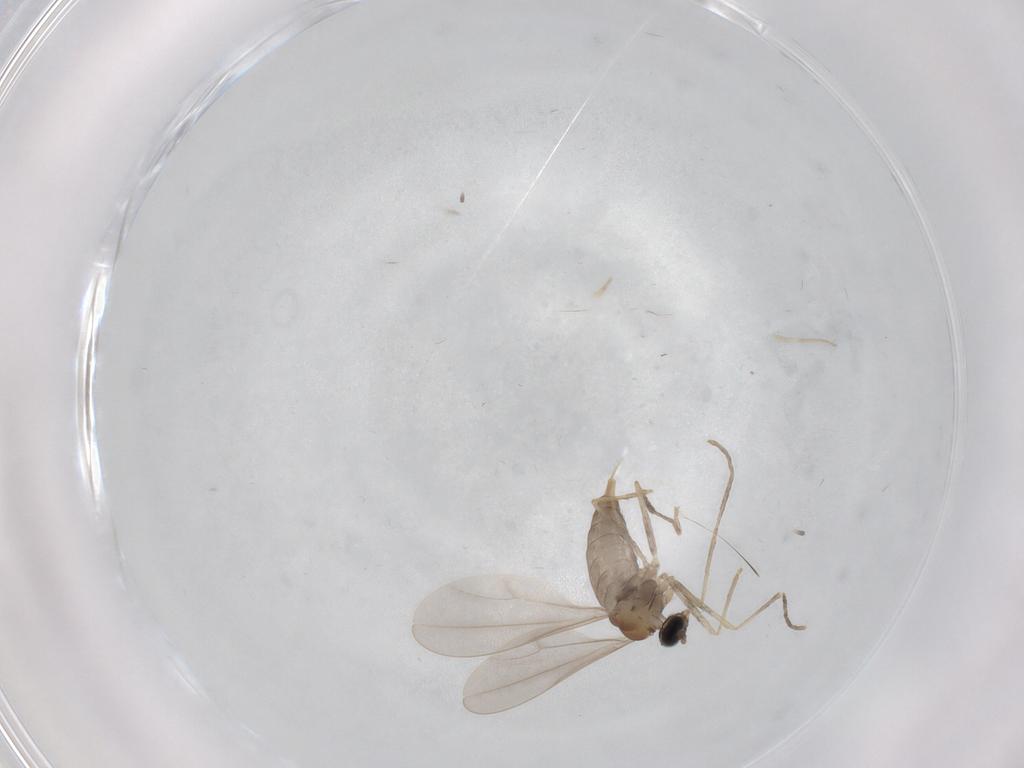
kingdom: Animalia
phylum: Arthropoda
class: Insecta
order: Diptera
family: Cecidomyiidae
